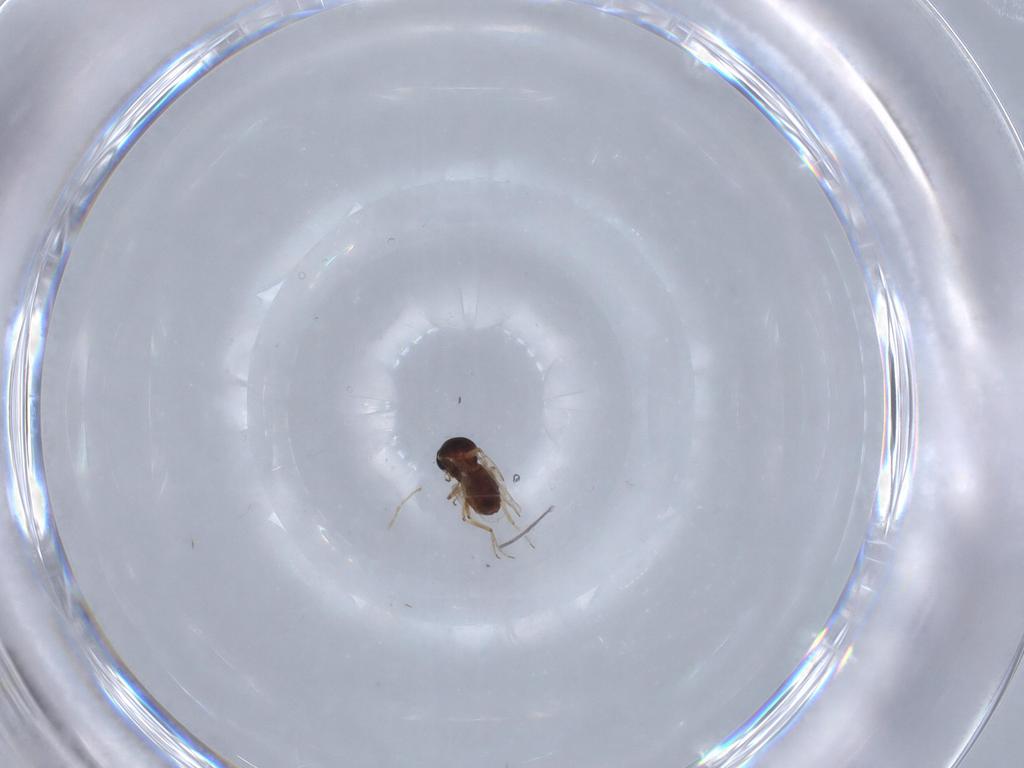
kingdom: Animalia
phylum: Arthropoda
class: Insecta
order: Diptera
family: Ceratopogonidae
